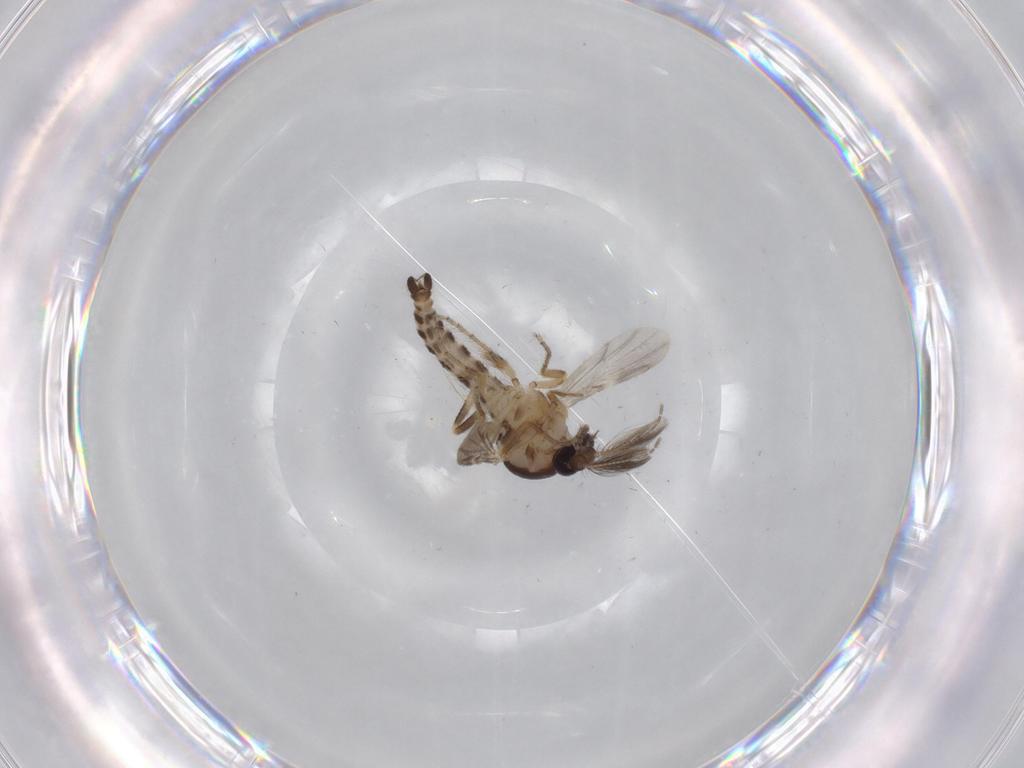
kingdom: Animalia
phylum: Arthropoda
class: Insecta
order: Diptera
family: Ceratopogonidae
